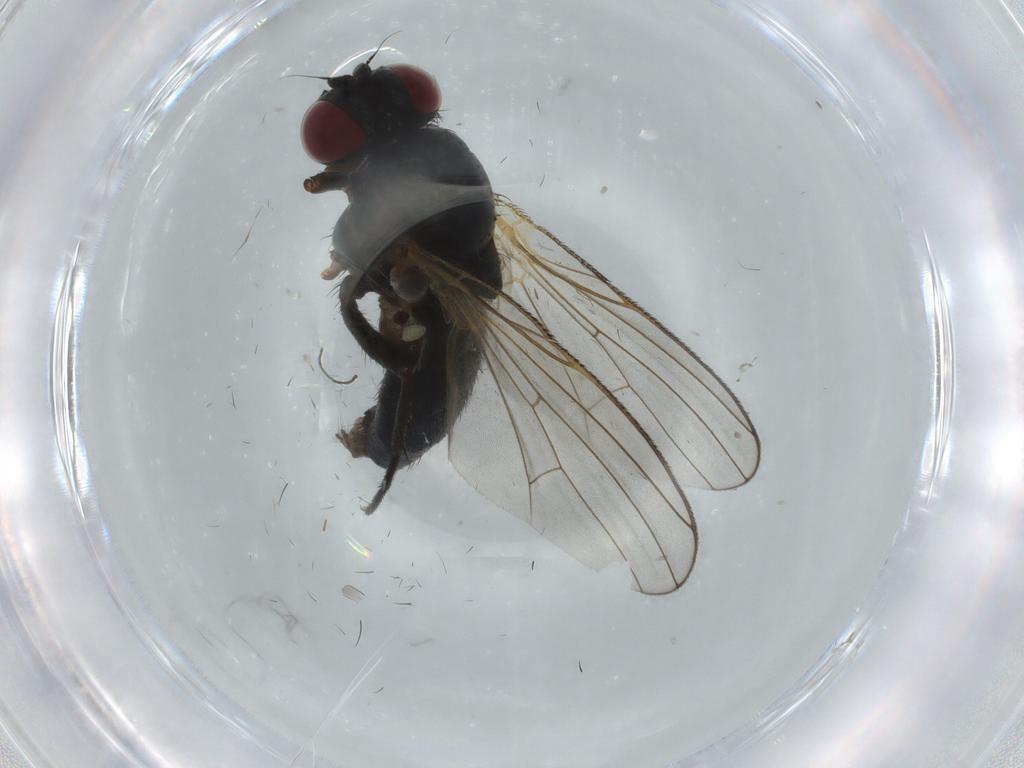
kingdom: Animalia
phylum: Arthropoda
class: Insecta
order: Diptera
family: Fannia
